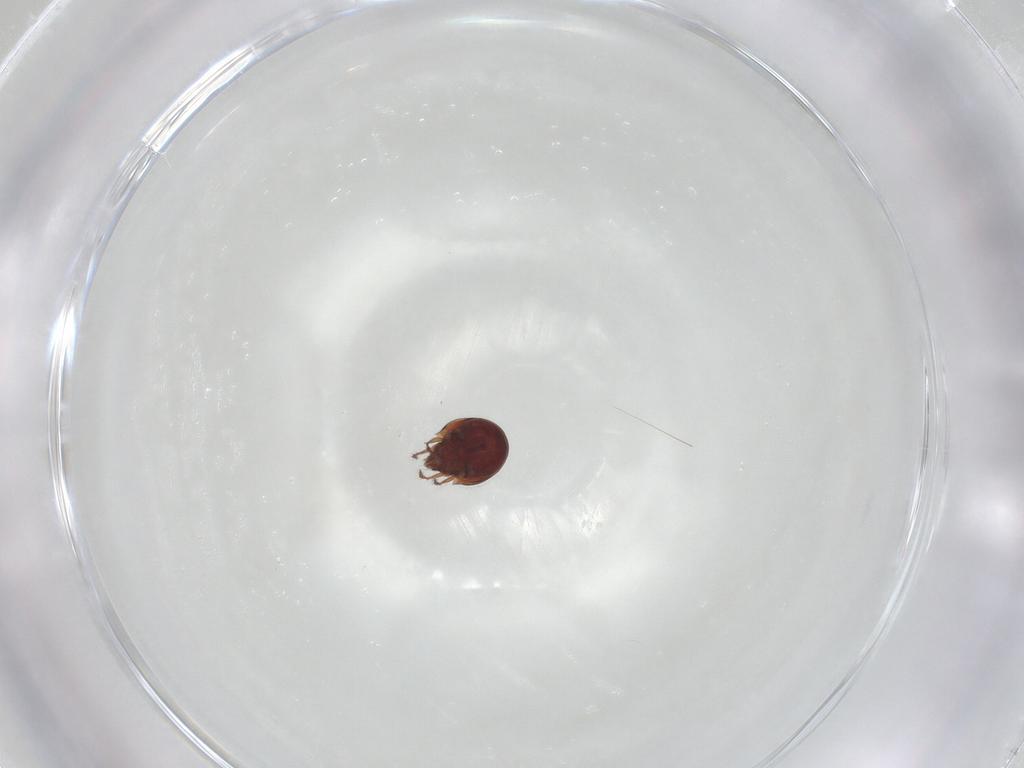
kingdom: Animalia
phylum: Arthropoda
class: Arachnida
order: Sarcoptiformes
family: Ceratozetidae
